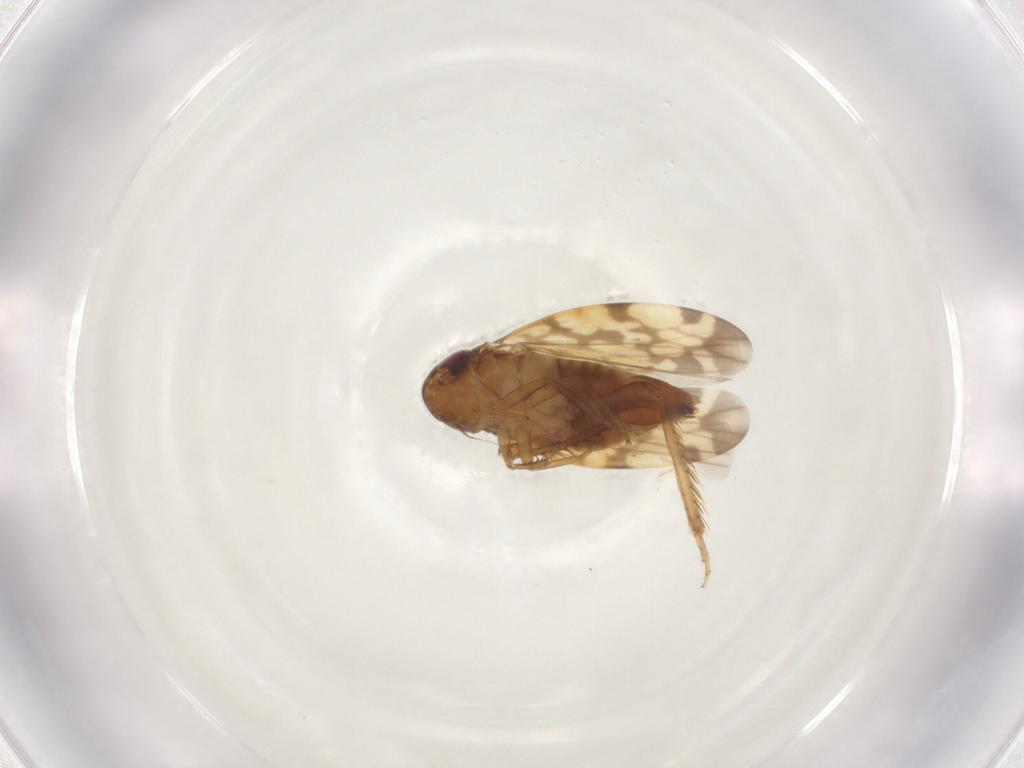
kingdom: Animalia
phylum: Arthropoda
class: Insecta
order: Hemiptera
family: Cicadellidae
